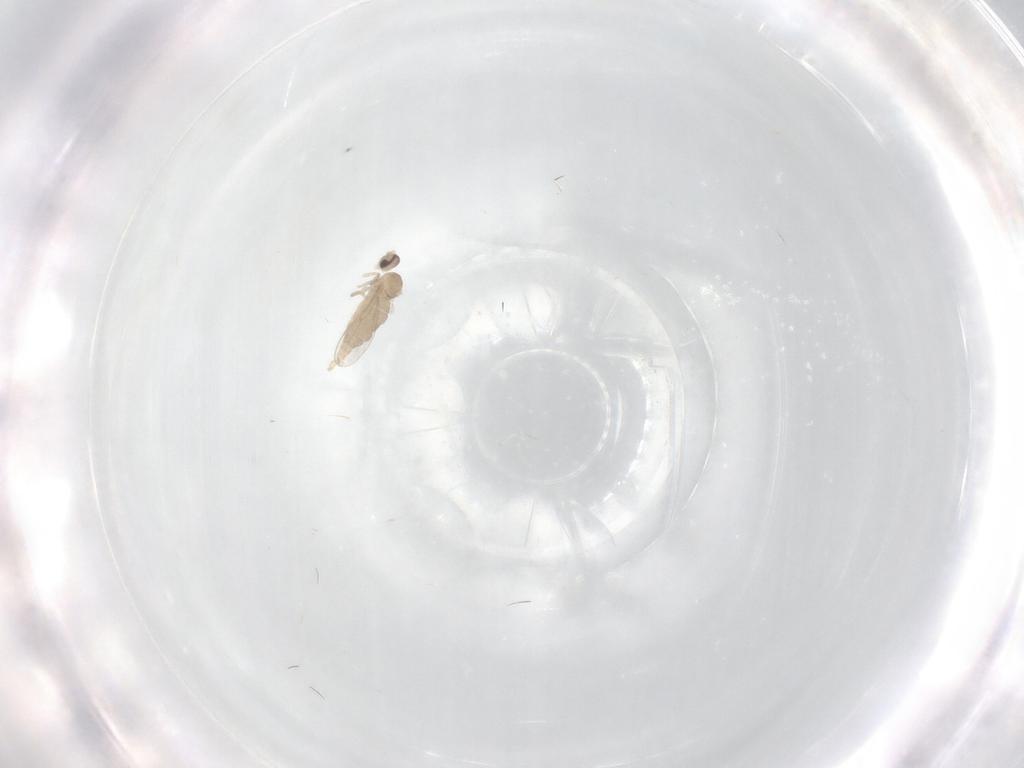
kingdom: Animalia
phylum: Arthropoda
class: Insecta
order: Diptera
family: Cecidomyiidae
